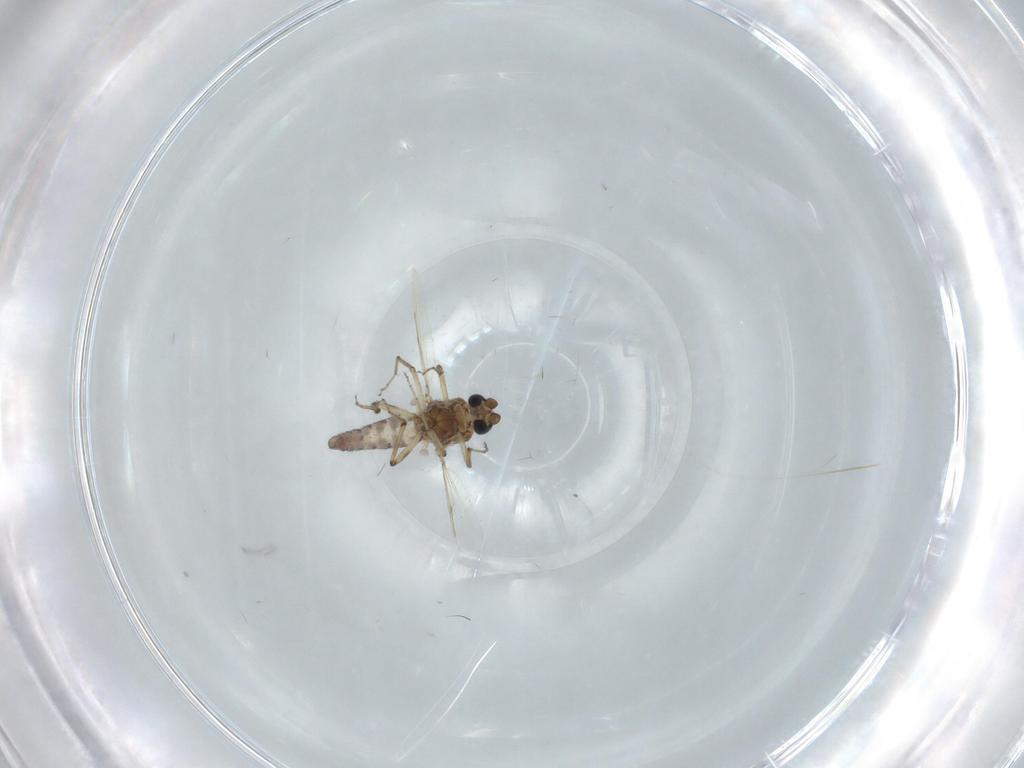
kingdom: Animalia
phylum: Arthropoda
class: Insecta
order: Diptera
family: Ceratopogonidae
